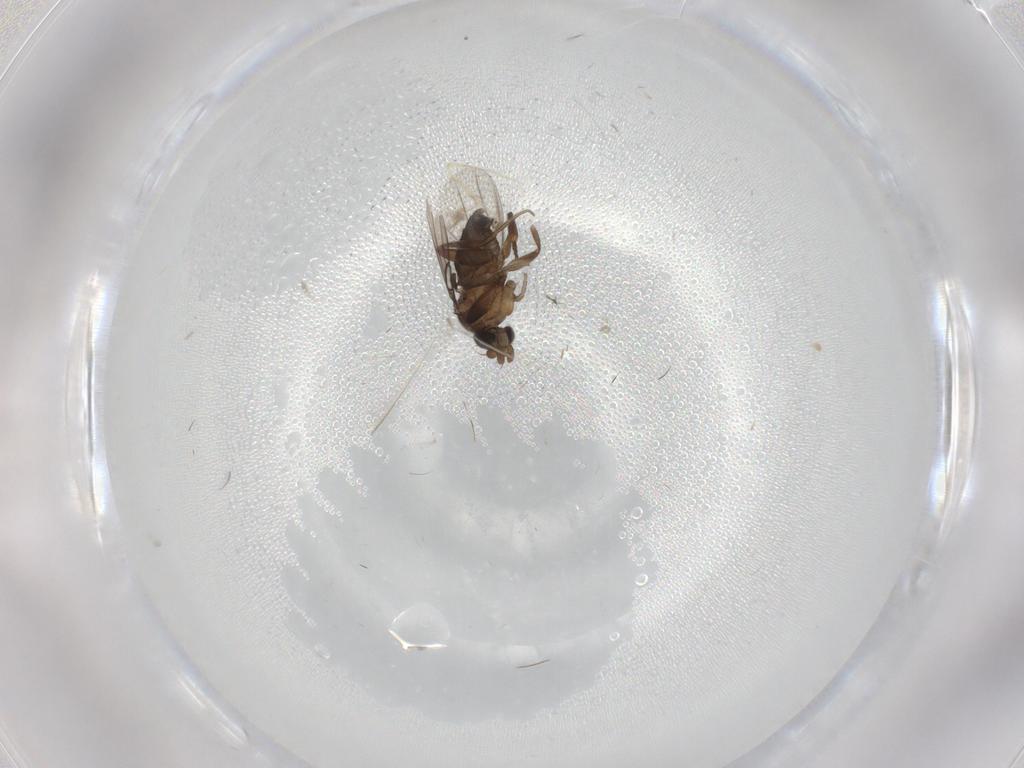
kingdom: Animalia
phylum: Arthropoda
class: Insecta
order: Diptera
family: Phoridae
